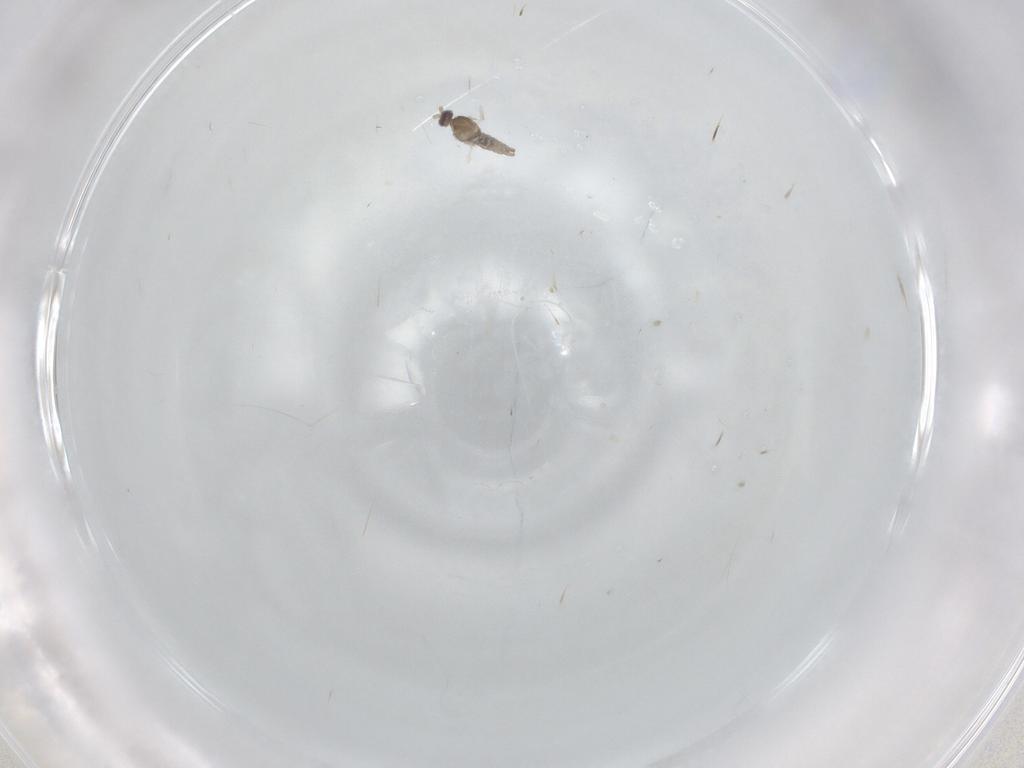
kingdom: Animalia
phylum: Arthropoda
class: Insecta
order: Diptera
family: Cecidomyiidae
